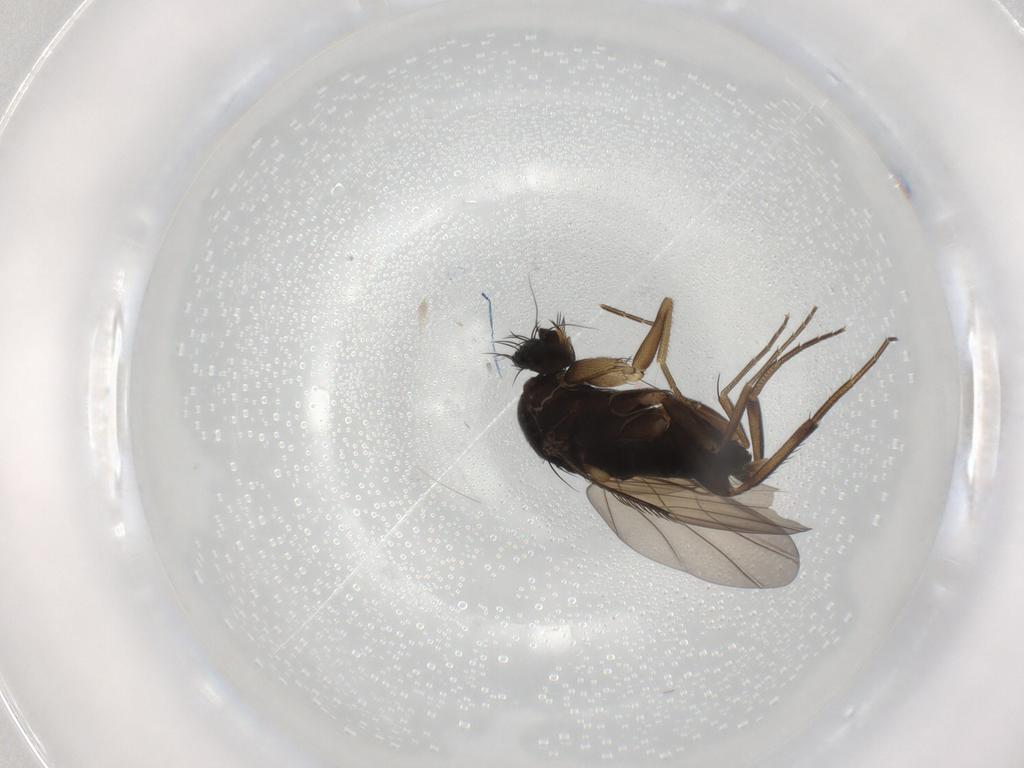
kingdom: Animalia
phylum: Arthropoda
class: Insecta
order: Diptera
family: Phoridae
